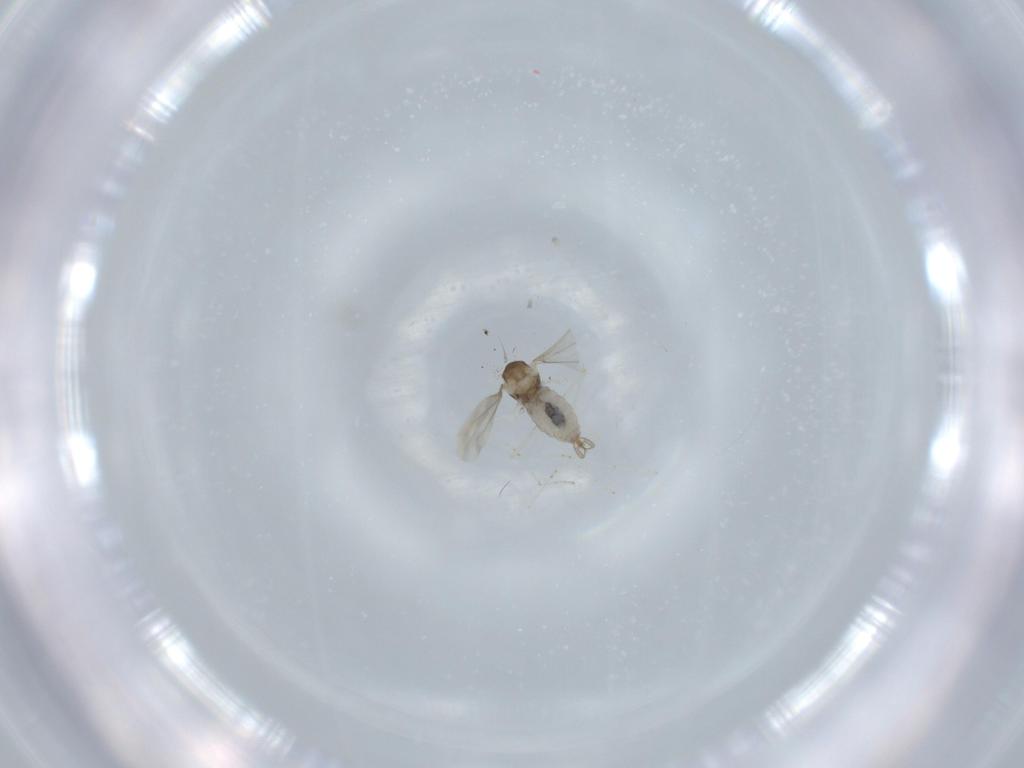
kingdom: Animalia
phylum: Arthropoda
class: Insecta
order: Diptera
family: Cecidomyiidae
